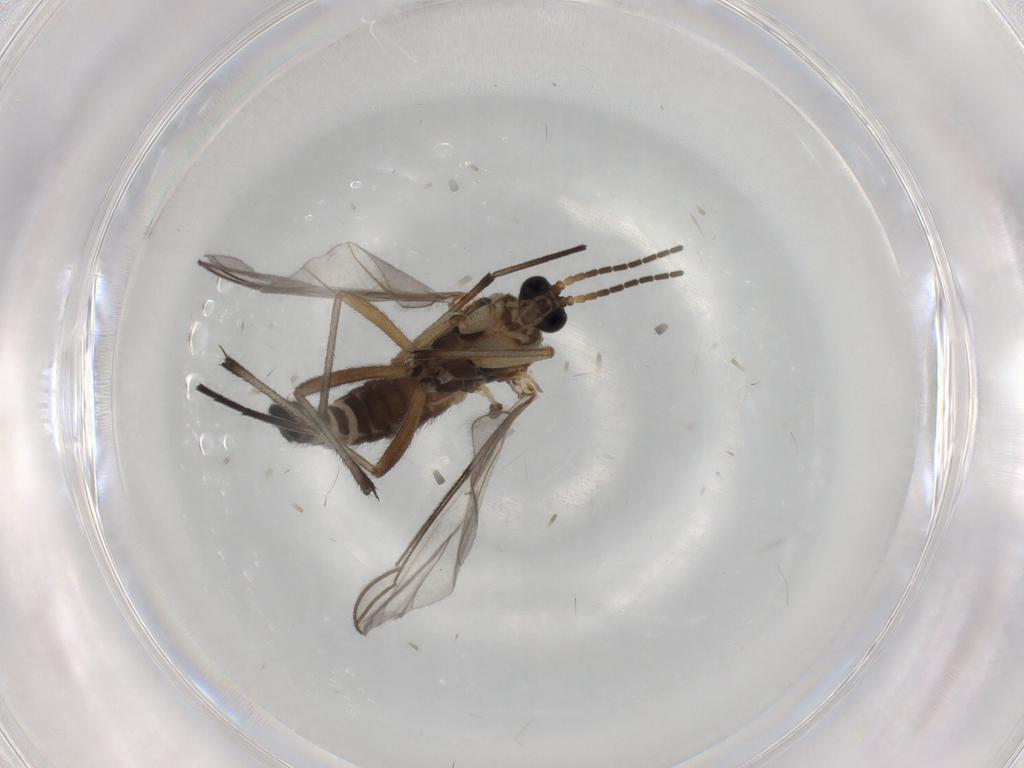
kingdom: Animalia
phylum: Arthropoda
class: Insecta
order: Diptera
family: Sciaridae
